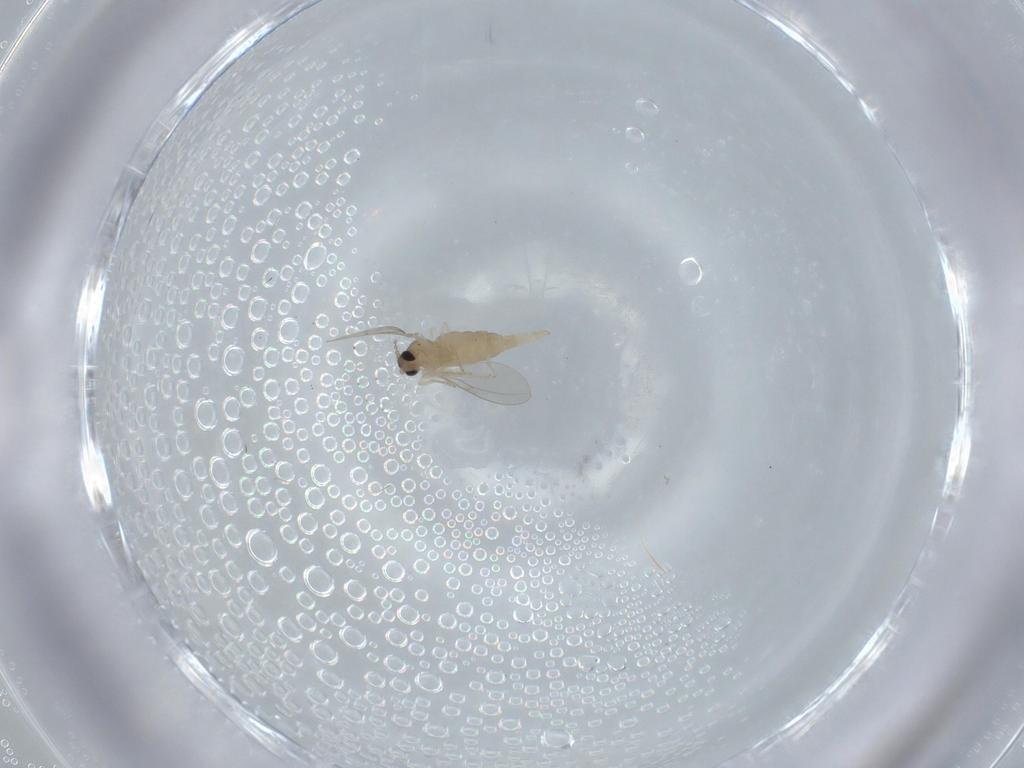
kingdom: Animalia
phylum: Arthropoda
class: Insecta
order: Diptera
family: Cecidomyiidae
